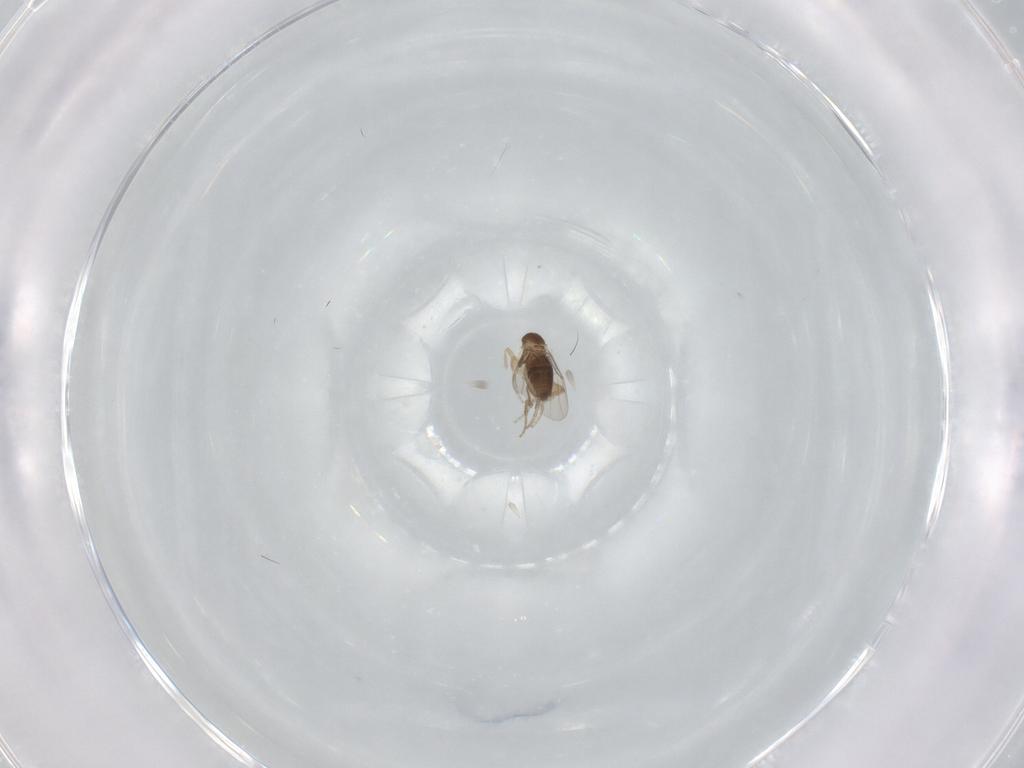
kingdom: Animalia
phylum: Arthropoda
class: Insecta
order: Diptera
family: Phoridae
